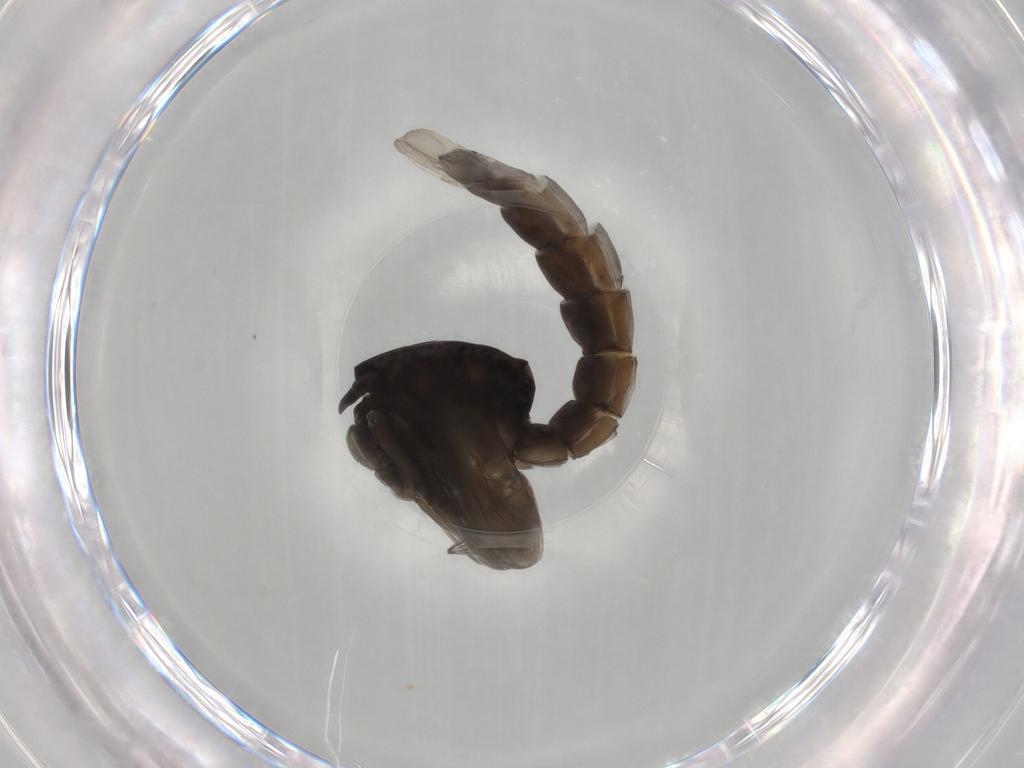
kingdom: Animalia
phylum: Arthropoda
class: Insecta
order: Diptera
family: Chironomidae
